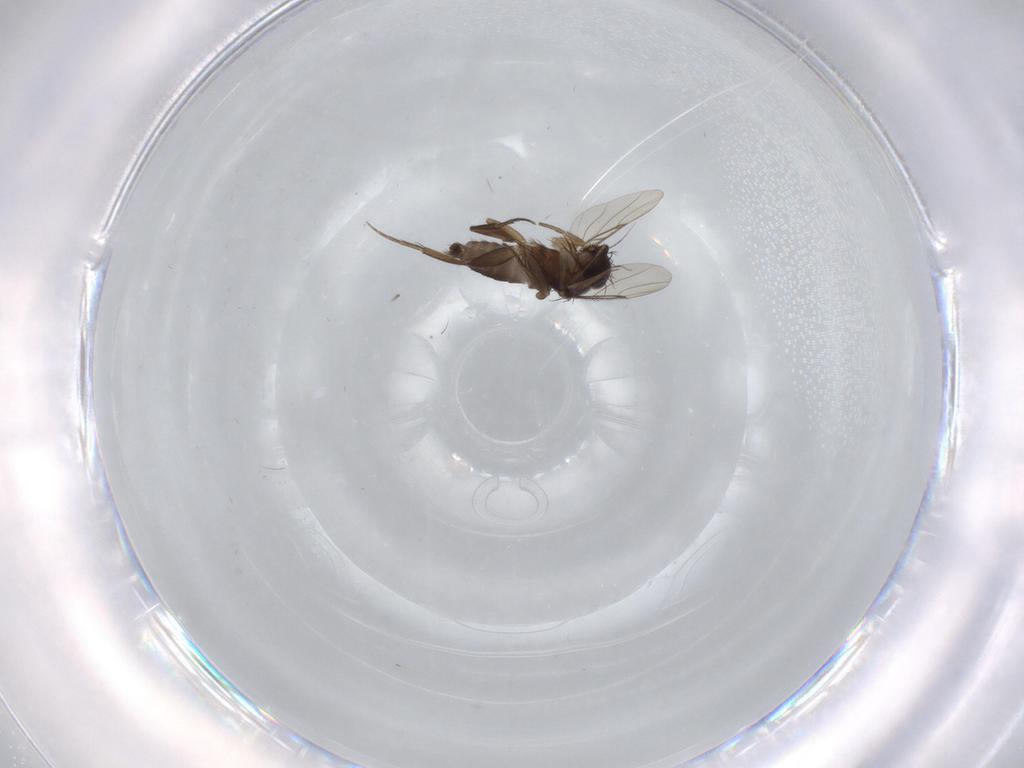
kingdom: Animalia
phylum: Arthropoda
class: Insecta
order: Diptera
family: Phoridae
